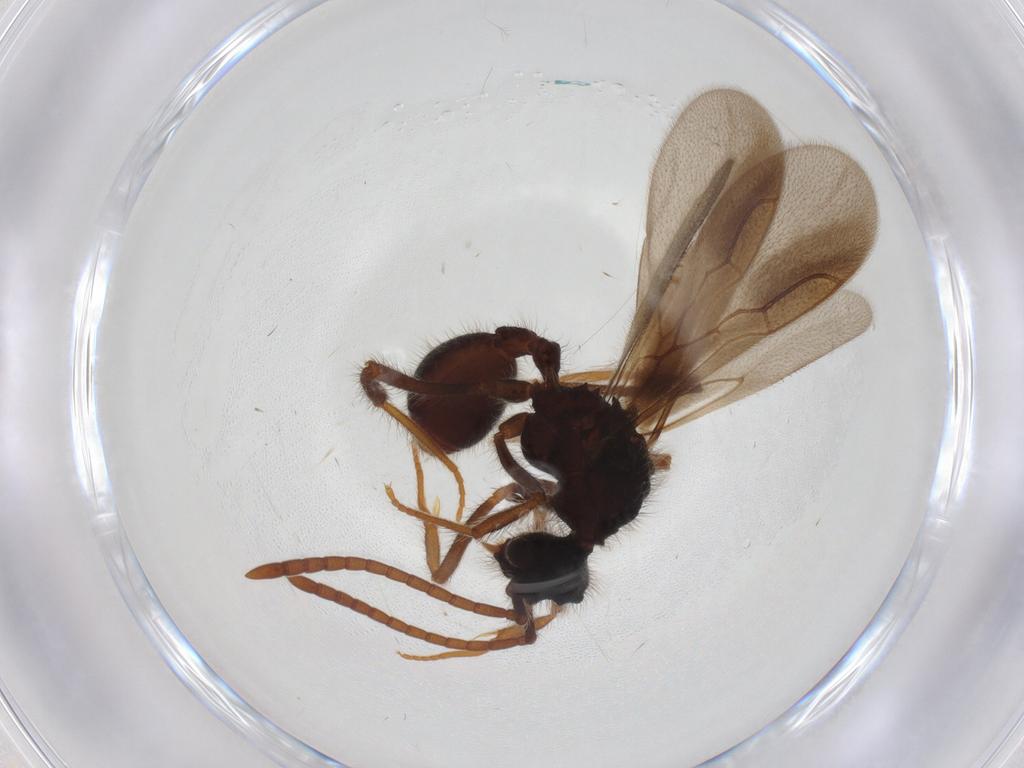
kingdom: Animalia
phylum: Arthropoda
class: Insecta
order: Hymenoptera
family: Formicidae
